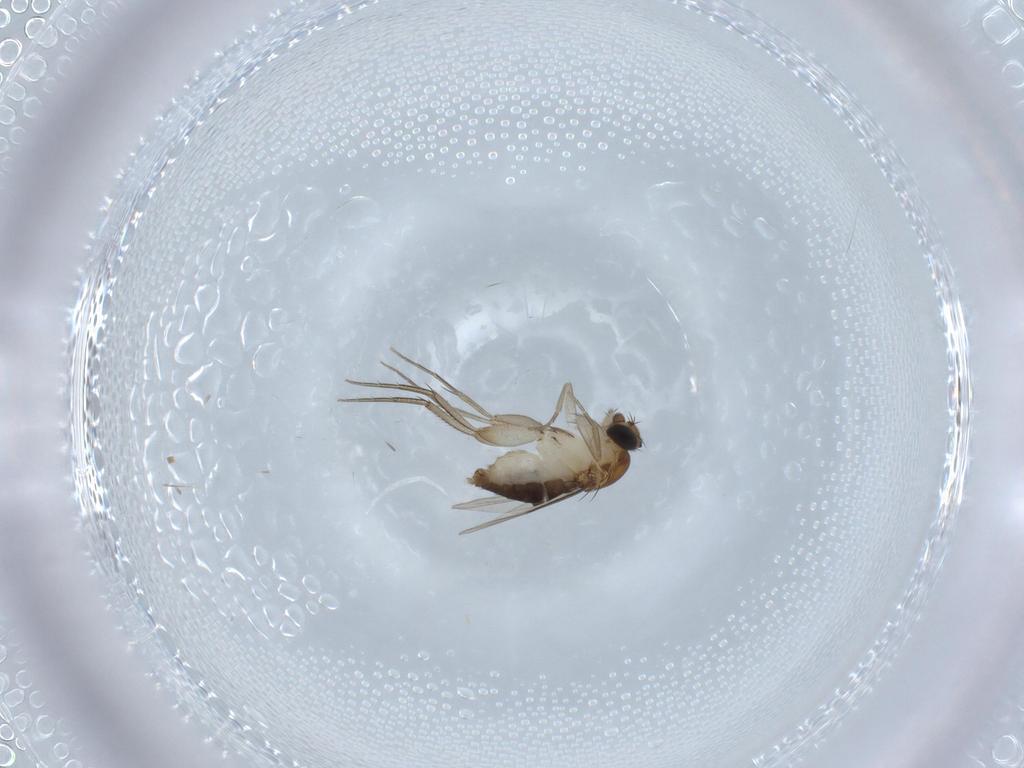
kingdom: Animalia
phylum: Arthropoda
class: Insecta
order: Diptera
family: Phoridae
